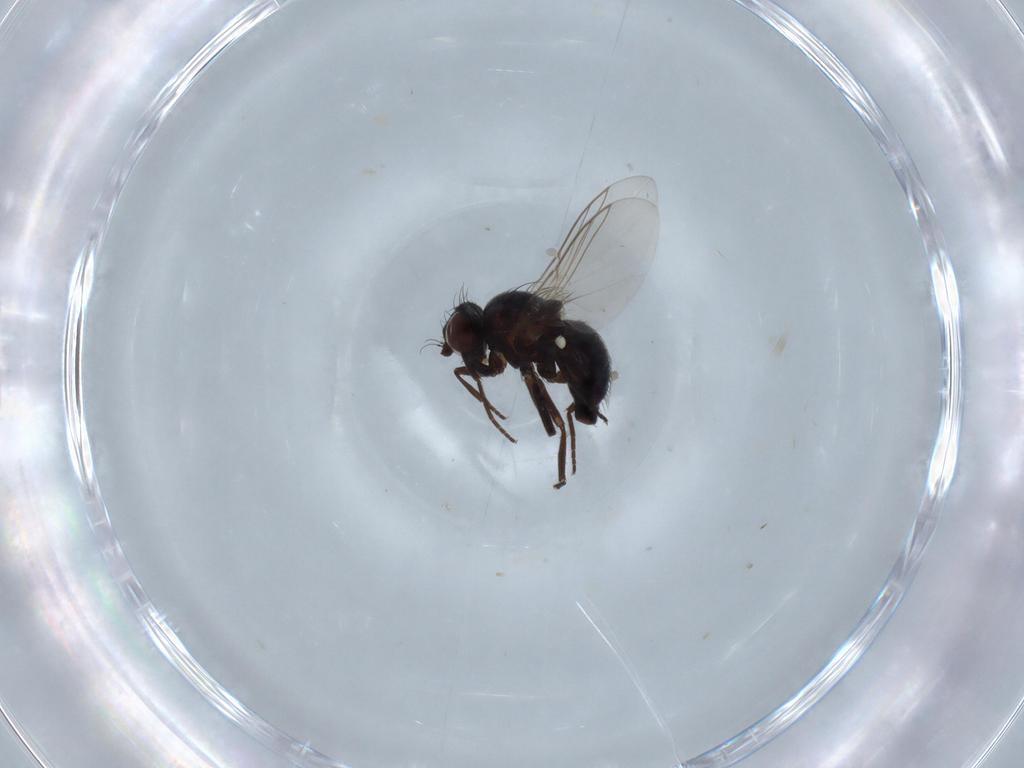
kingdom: Animalia
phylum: Arthropoda
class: Insecta
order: Diptera
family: Agromyzidae
